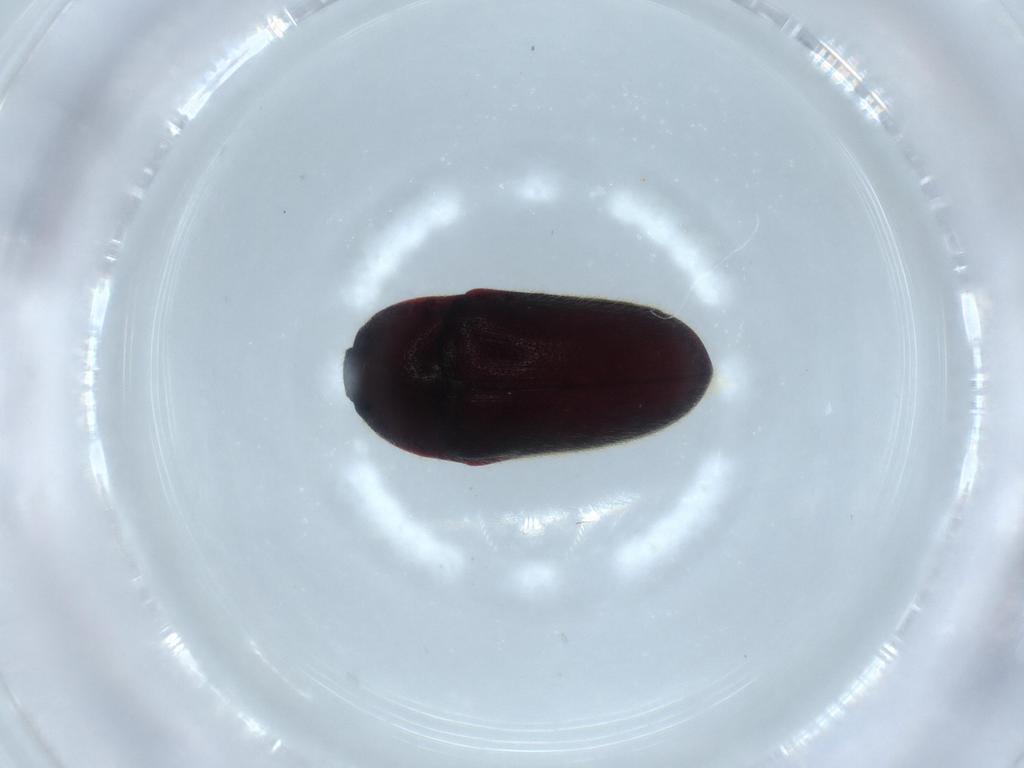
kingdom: Animalia
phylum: Arthropoda
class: Insecta
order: Coleoptera
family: Throscidae
